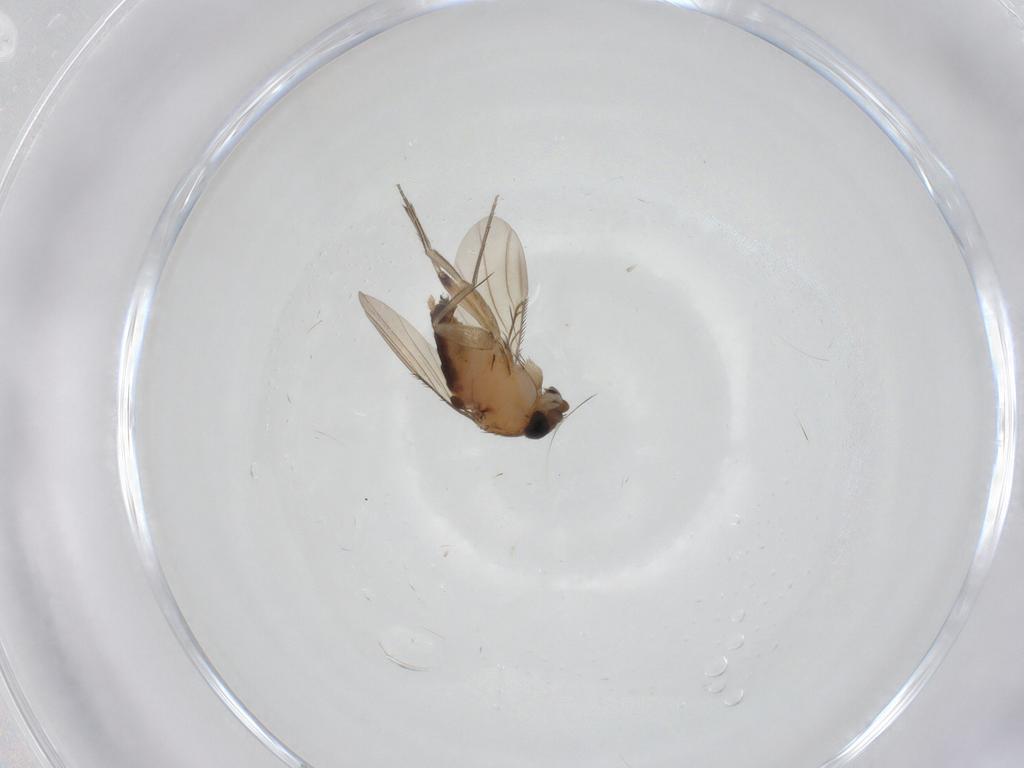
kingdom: Animalia
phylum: Arthropoda
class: Insecta
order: Diptera
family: Phoridae
